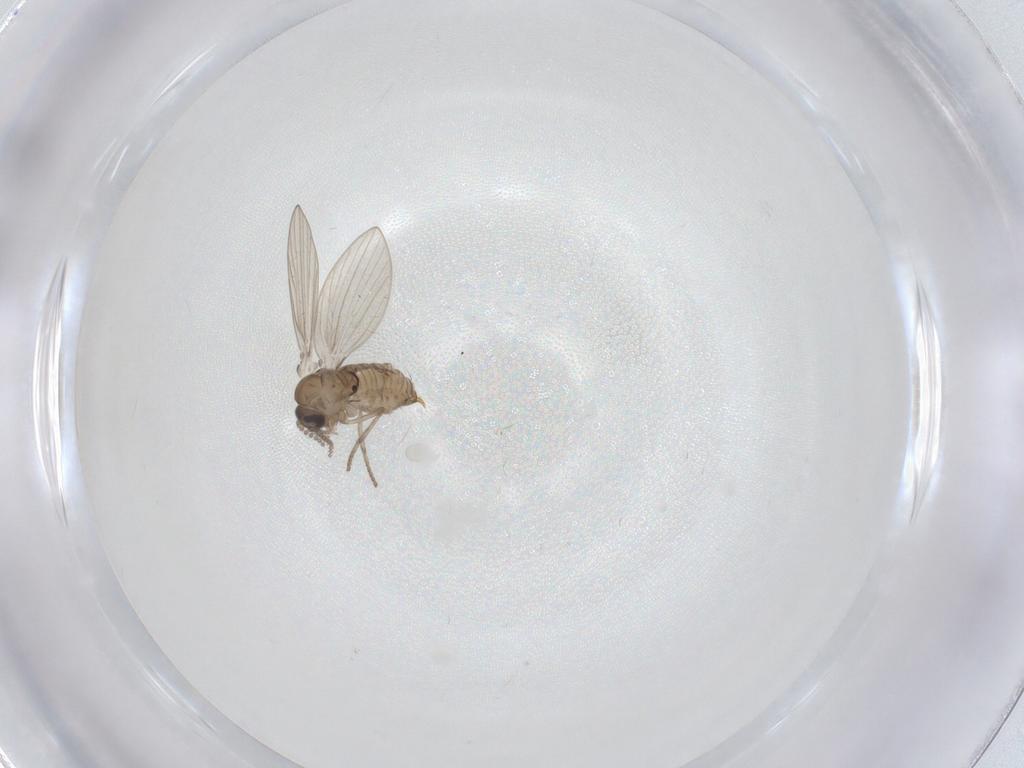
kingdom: Animalia
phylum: Arthropoda
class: Insecta
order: Diptera
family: Psychodidae
